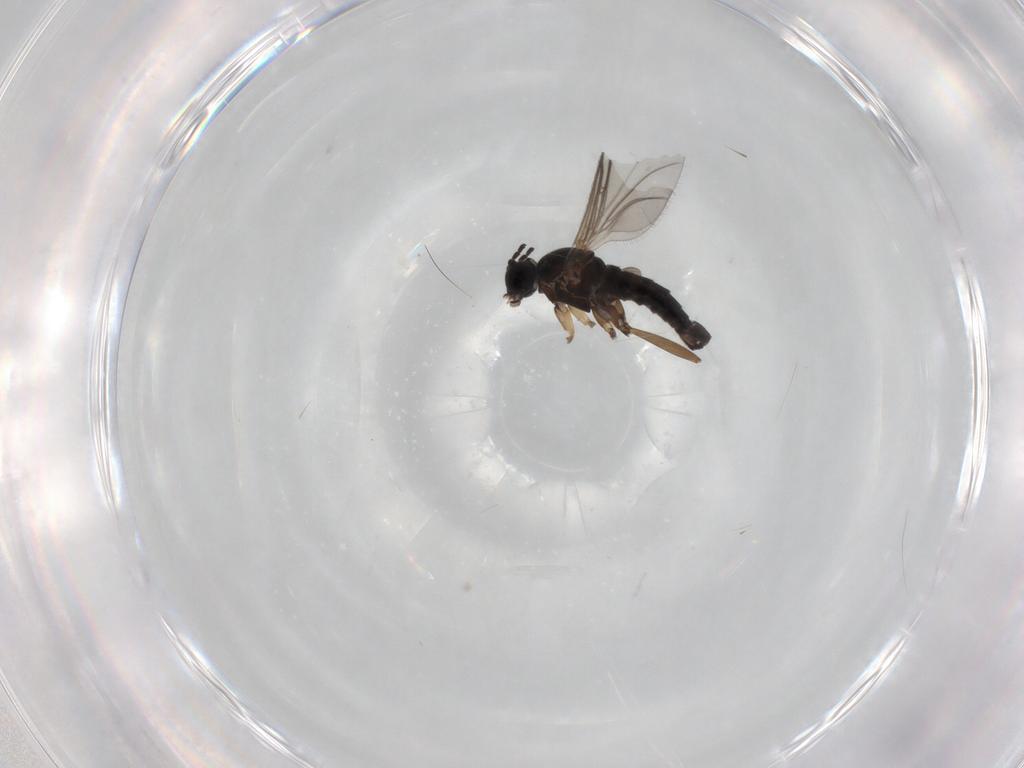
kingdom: Animalia
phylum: Arthropoda
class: Insecta
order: Diptera
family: Sciaridae
